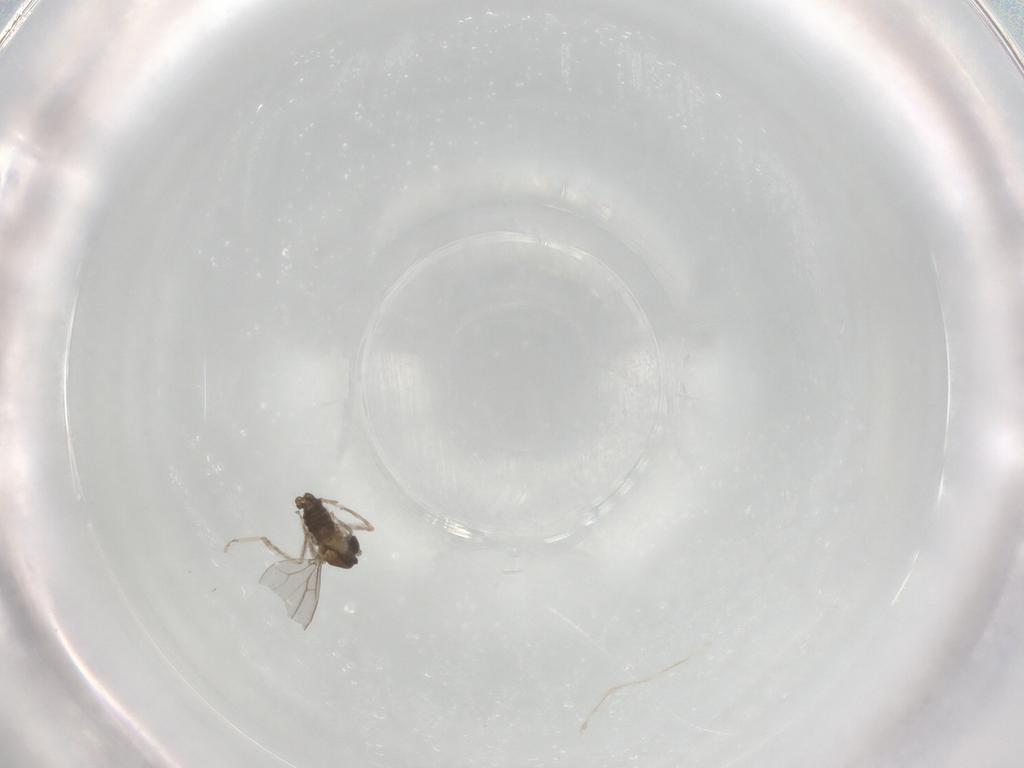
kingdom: Animalia
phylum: Arthropoda
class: Insecta
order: Diptera
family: Cecidomyiidae
